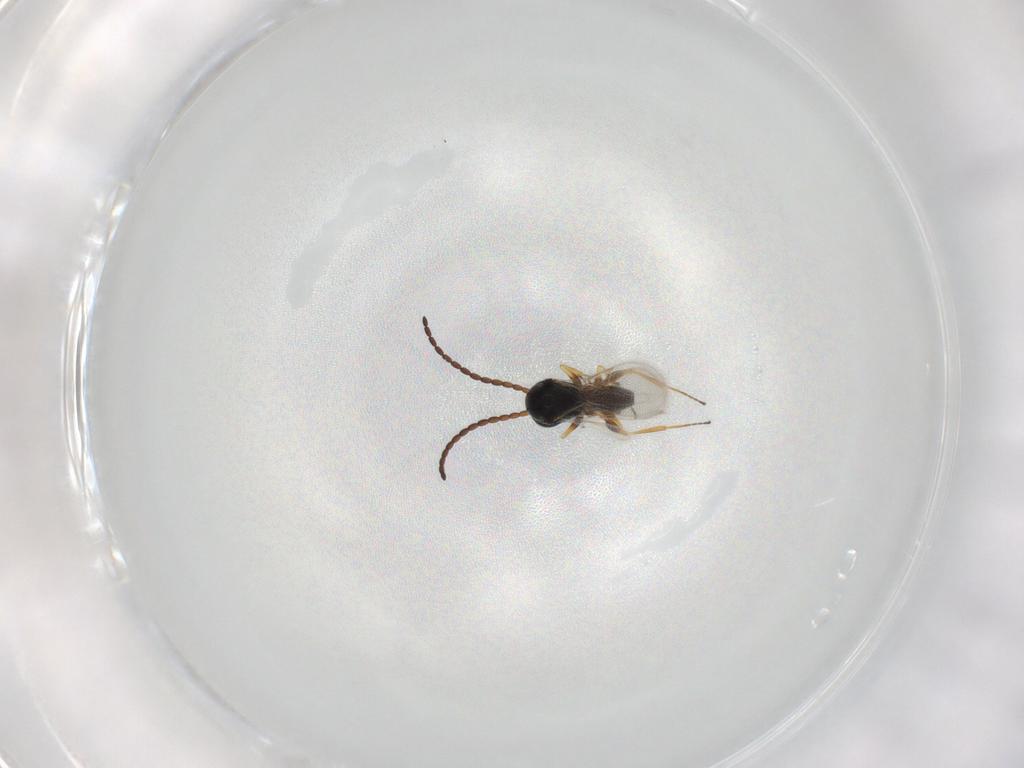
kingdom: Animalia
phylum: Arthropoda
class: Insecta
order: Hymenoptera
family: Figitidae
